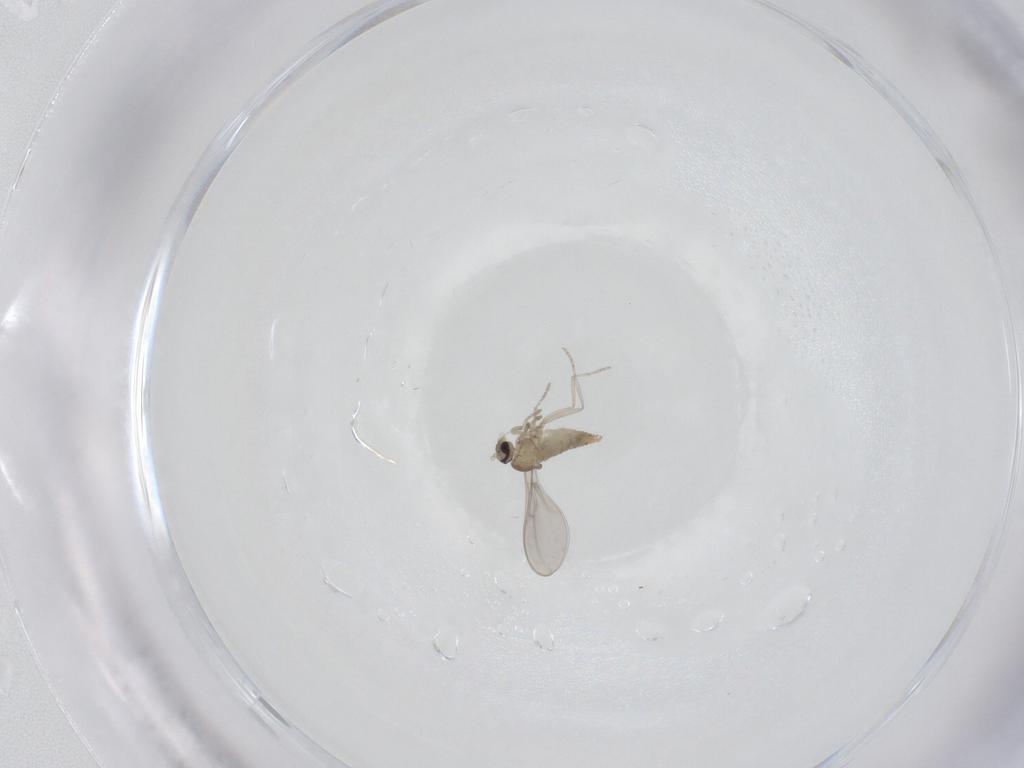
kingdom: Animalia
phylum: Arthropoda
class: Insecta
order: Diptera
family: Cecidomyiidae
